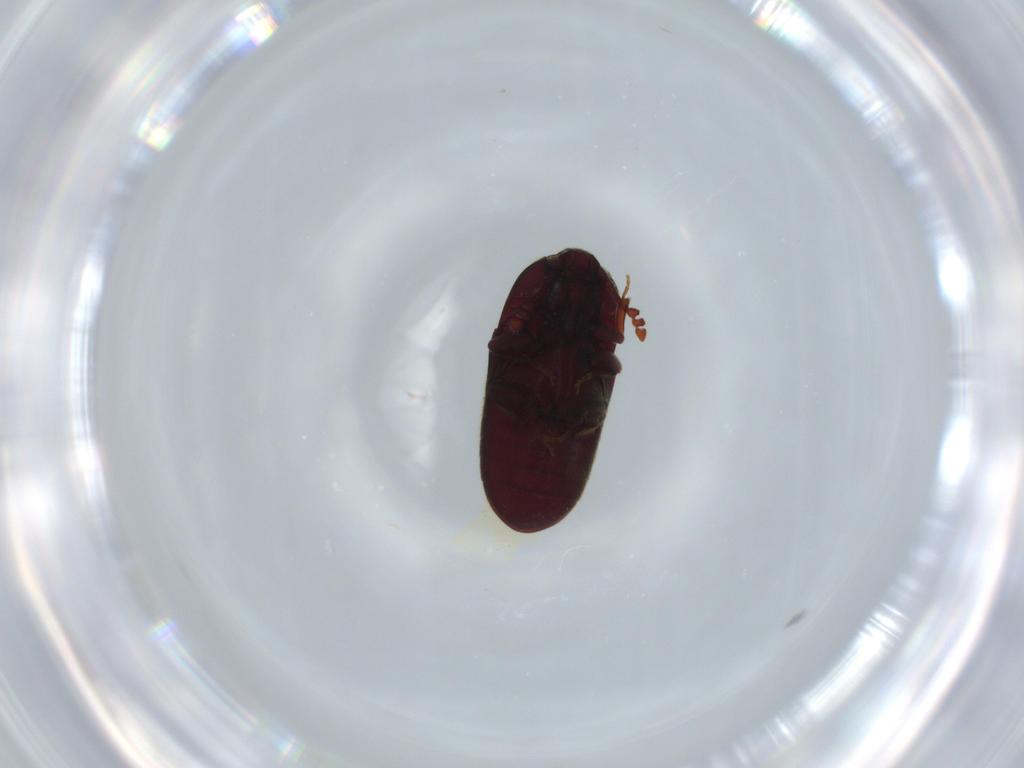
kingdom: Animalia
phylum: Arthropoda
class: Insecta
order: Coleoptera
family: Throscidae
